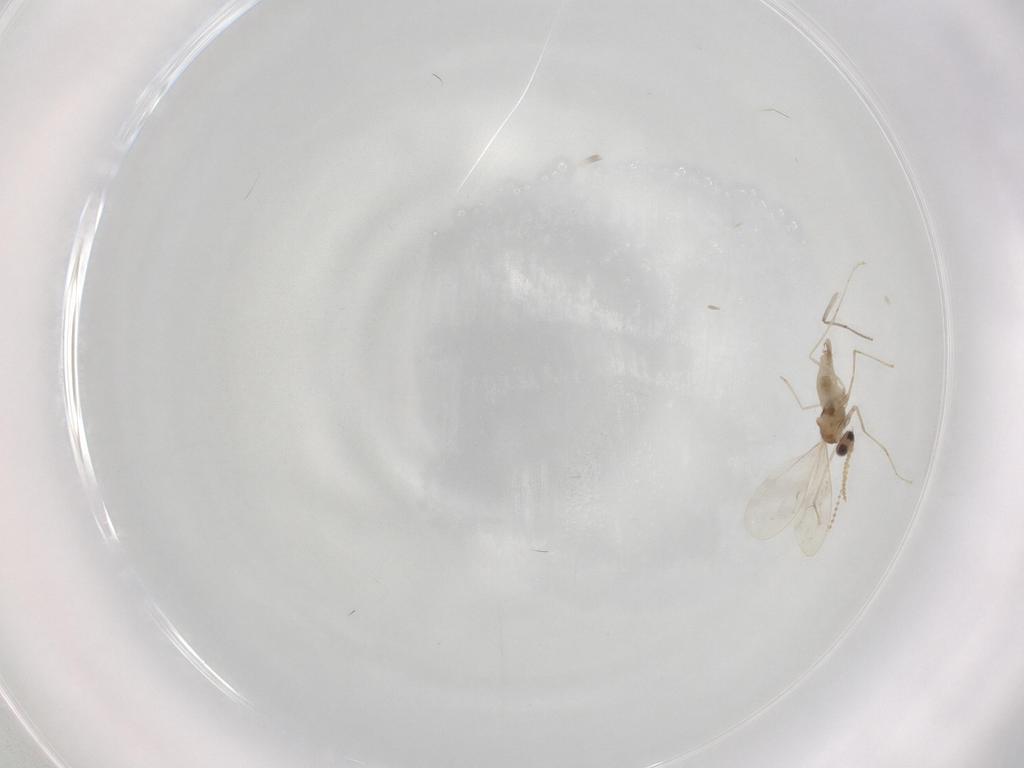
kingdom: Animalia
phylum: Arthropoda
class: Insecta
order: Diptera
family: Cecidomyiidae
